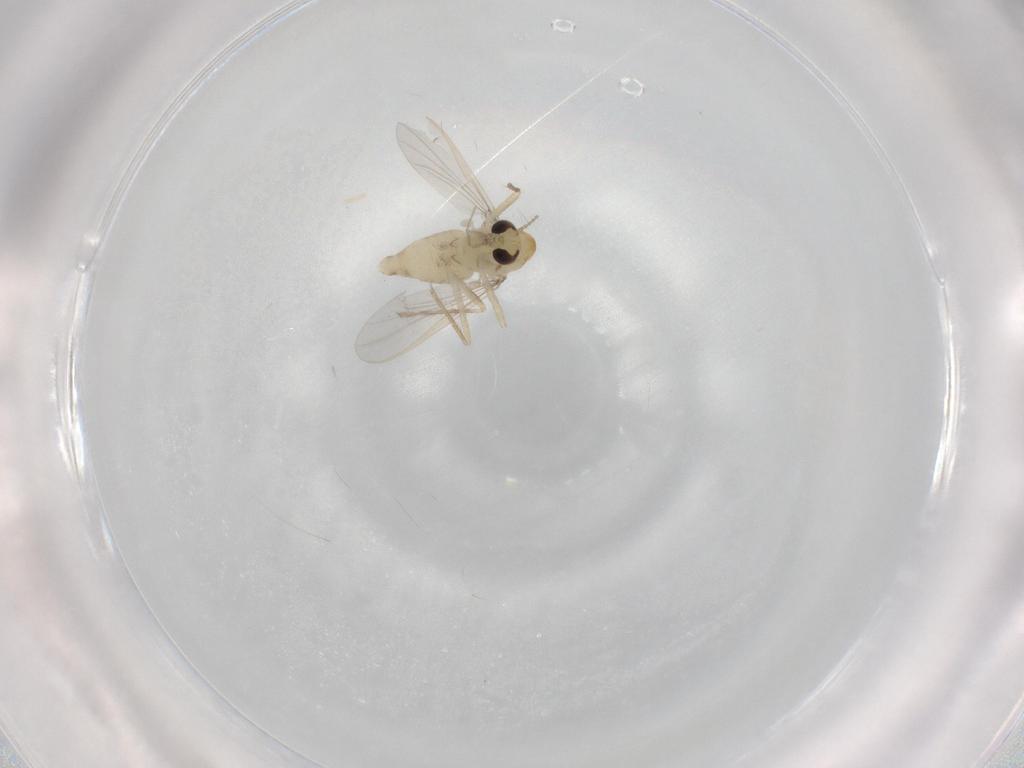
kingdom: Animalia
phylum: Arthropoda
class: Insecta
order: Diptera
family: Chironomidae
